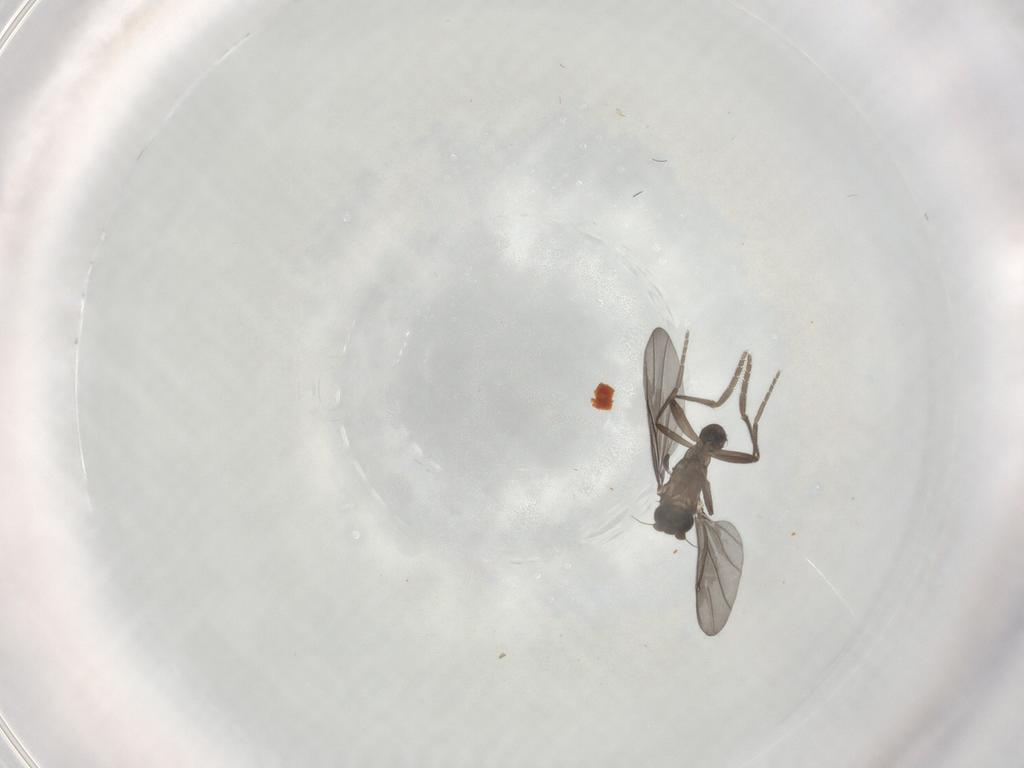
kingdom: Animalia
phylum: Arthropoda
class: Insecta
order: Diptera
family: Phoridae
